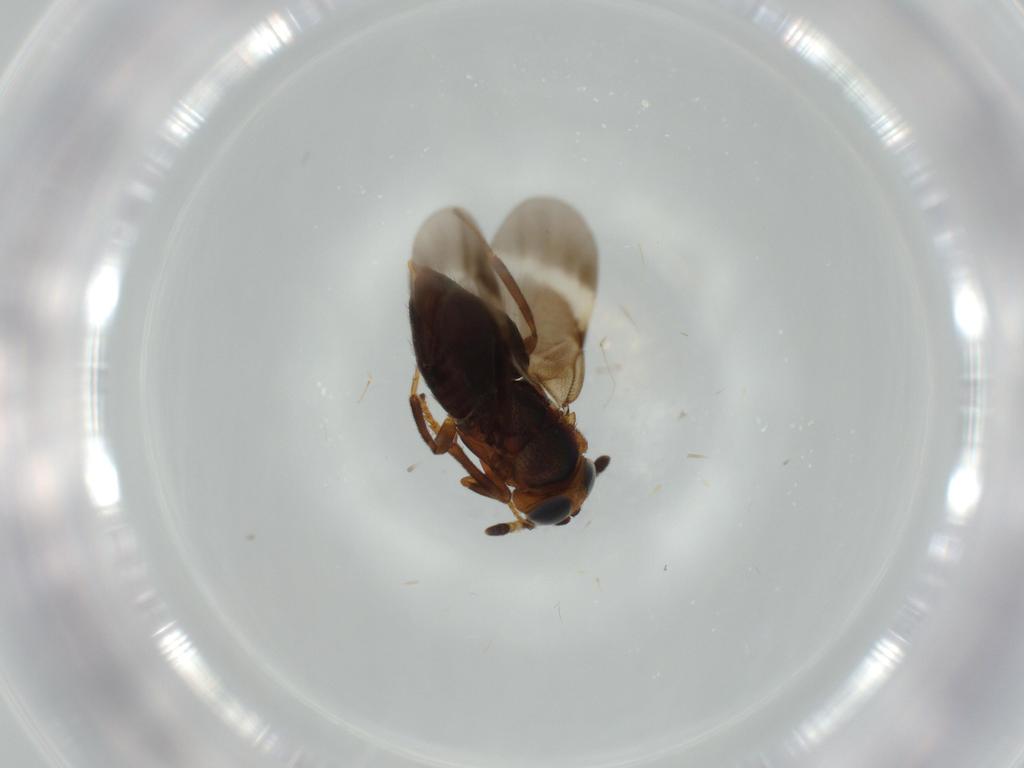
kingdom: Animalia
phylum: Arthropoda
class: Insecta
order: Hymenoptera
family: Encyrtidae
